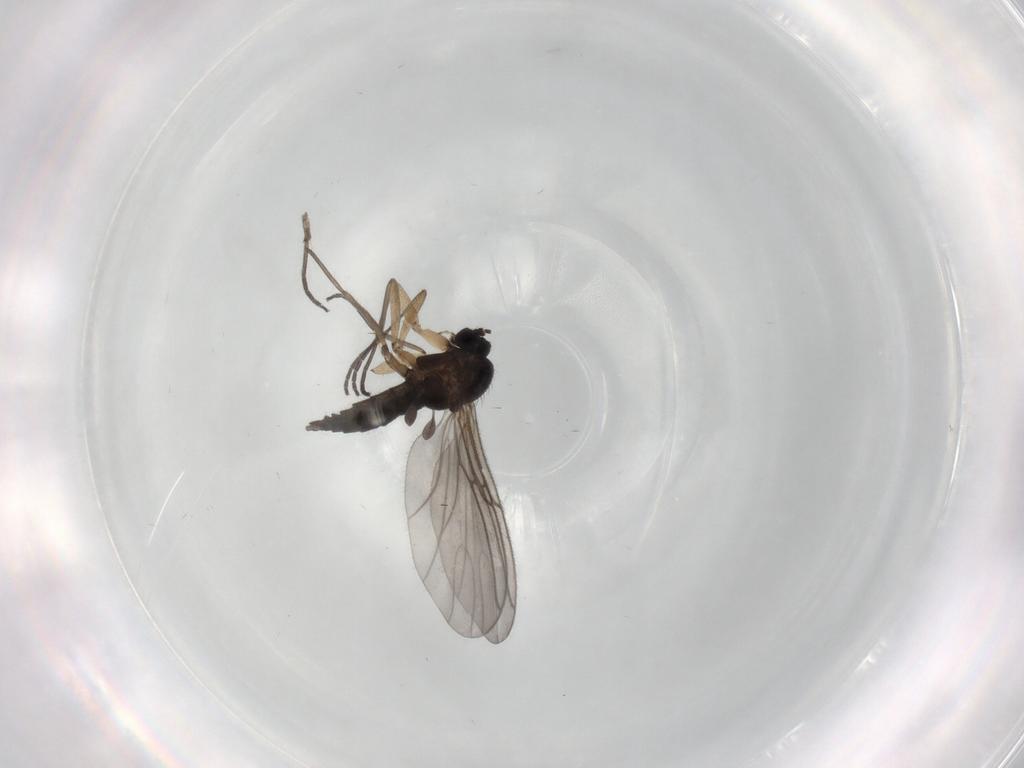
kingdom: Animalia
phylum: Arthropoda
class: Insecta
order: Diptera
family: Sciaridae
